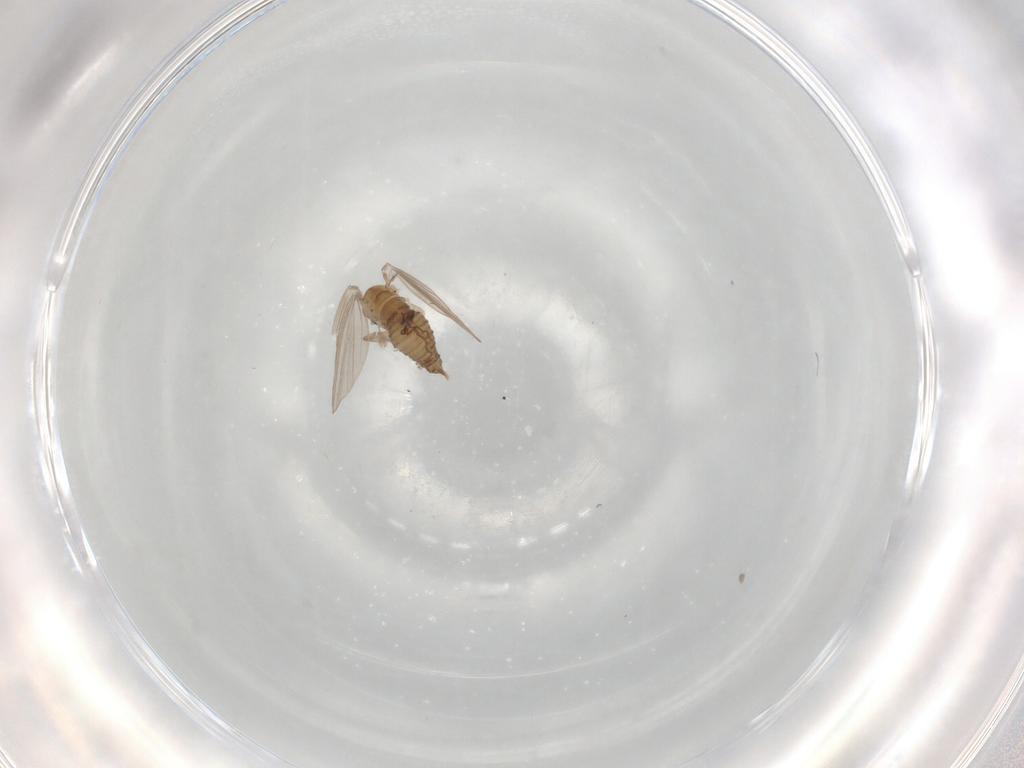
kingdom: Animalia
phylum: Arthropoda
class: Insecta
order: Diptera
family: Psychodidae
